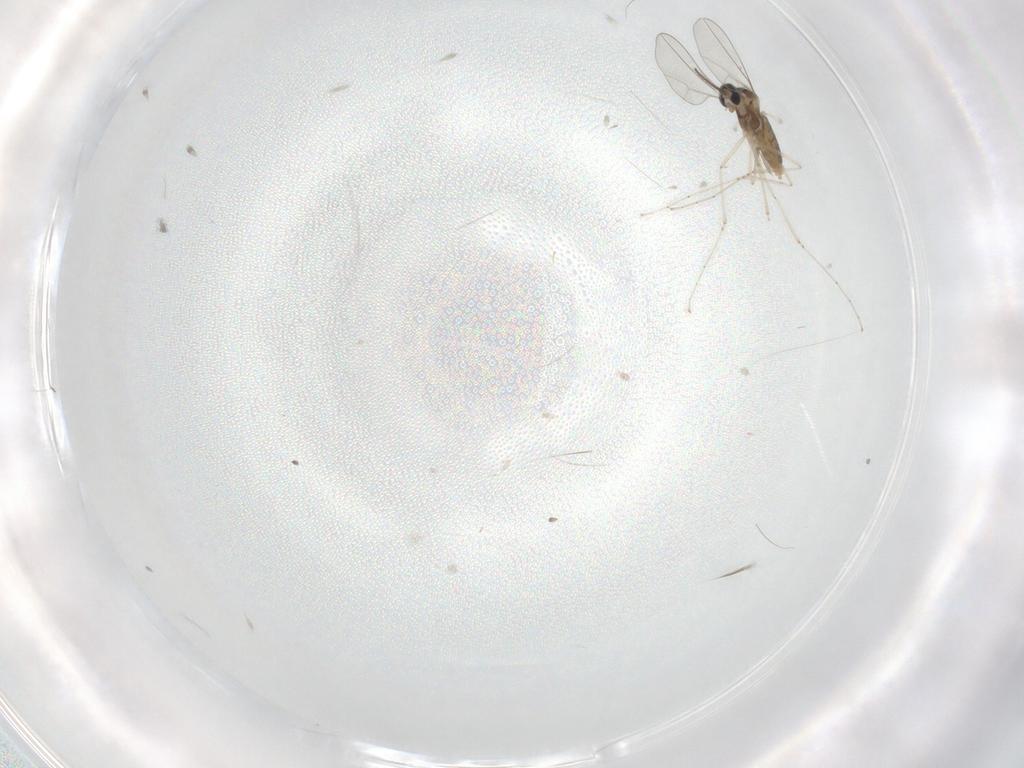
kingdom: Animalia
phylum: Arthropoda
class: Insecta
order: Diptera
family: Cecidomyiidae
